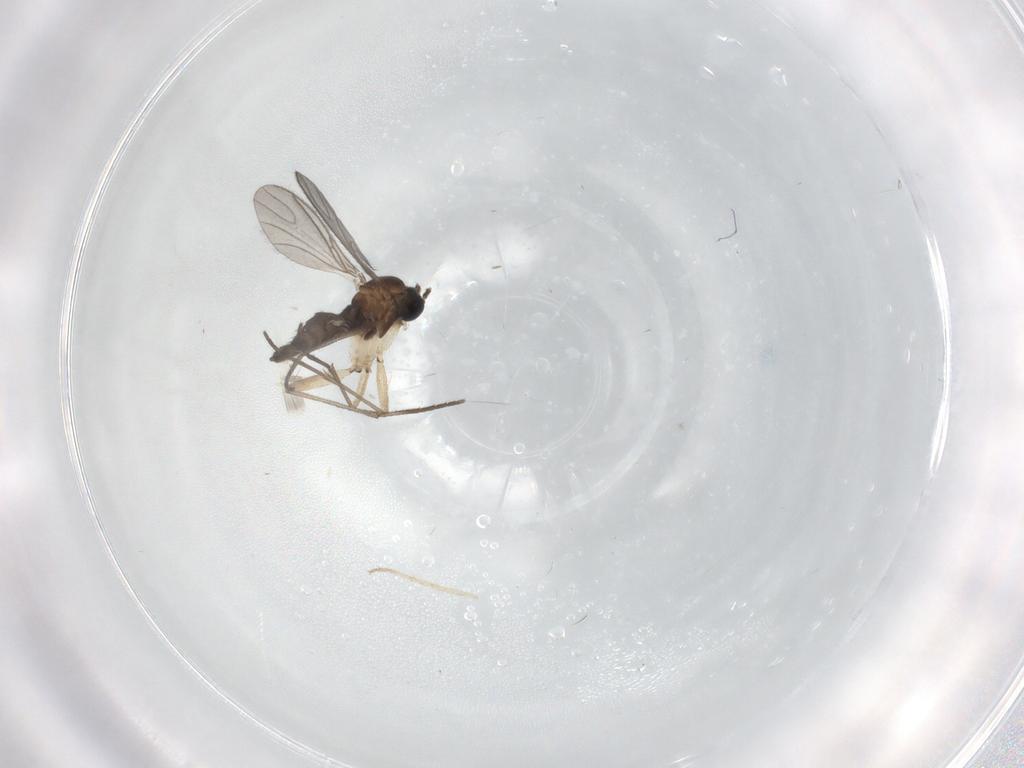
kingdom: Animalia
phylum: Arthropoda
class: Insecta
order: Diptera
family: Sciaridae
